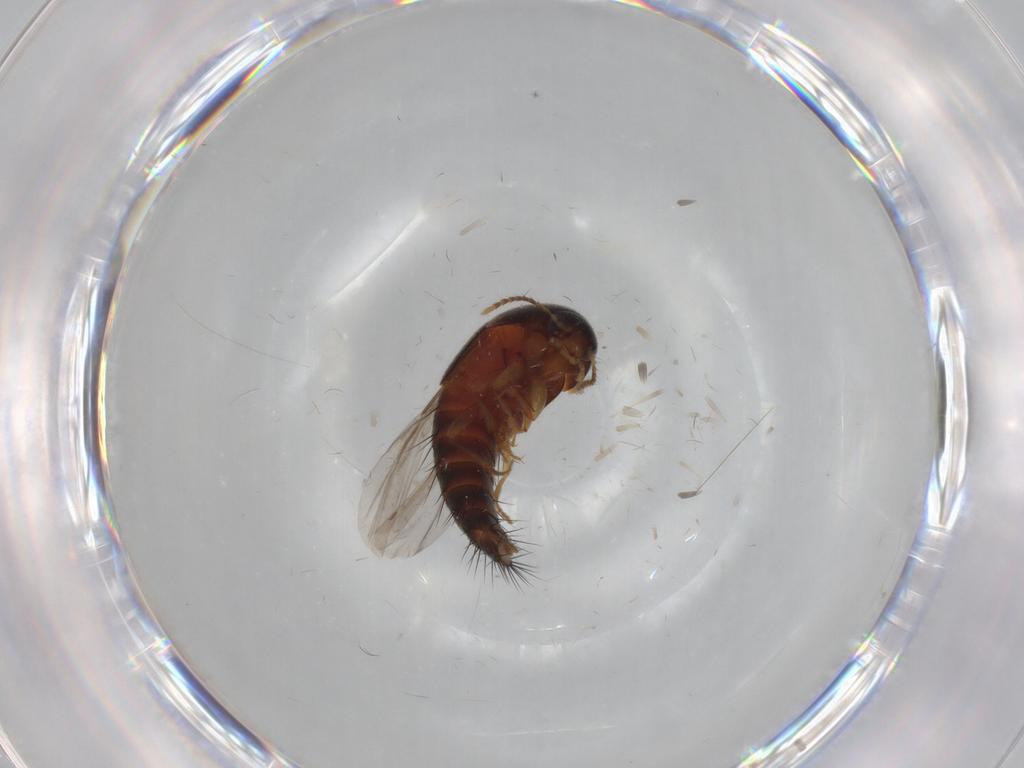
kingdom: Animalia
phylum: Arthropoda
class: Insecta
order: Coleoptera
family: Staphylinidae
